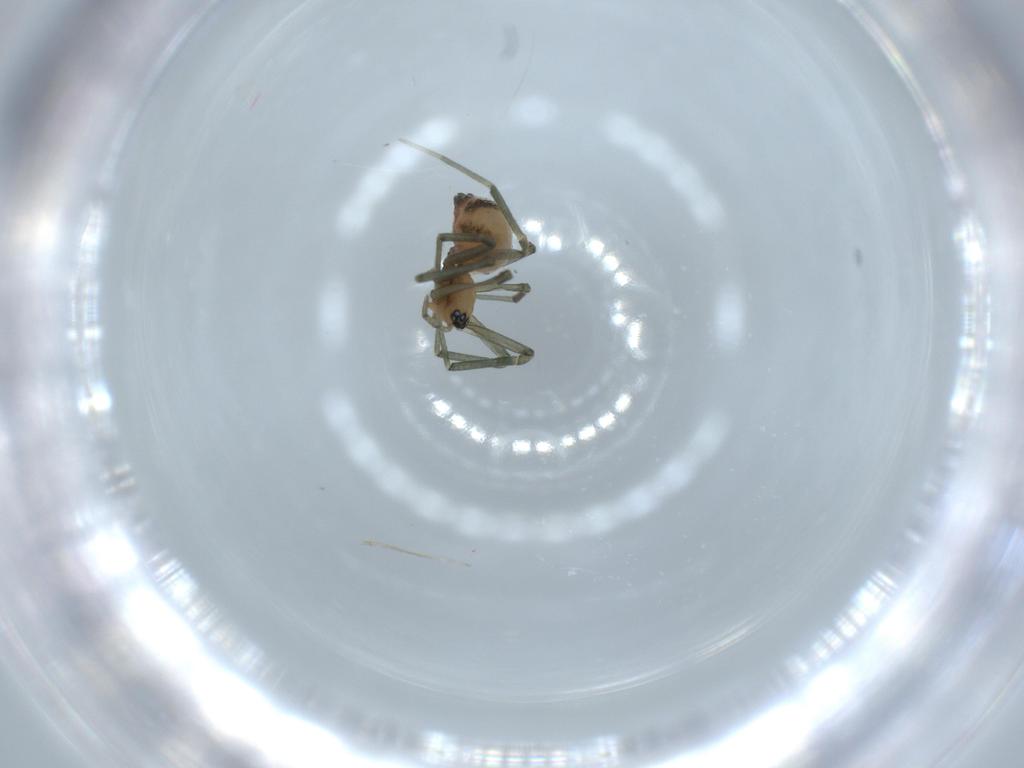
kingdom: Animalia
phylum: Arthropoda
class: Arachnida
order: Araneae
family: Linyphiidae
